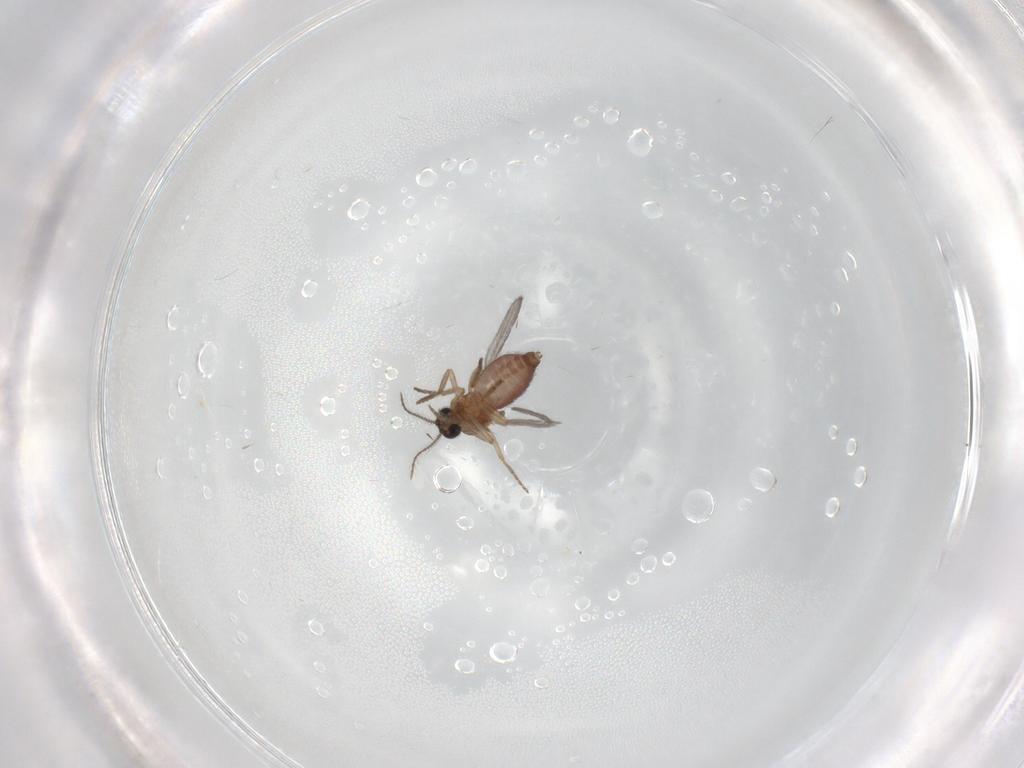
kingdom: Animalia
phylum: Arthropoda
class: Insecta
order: Diptera
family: Chironomidae
